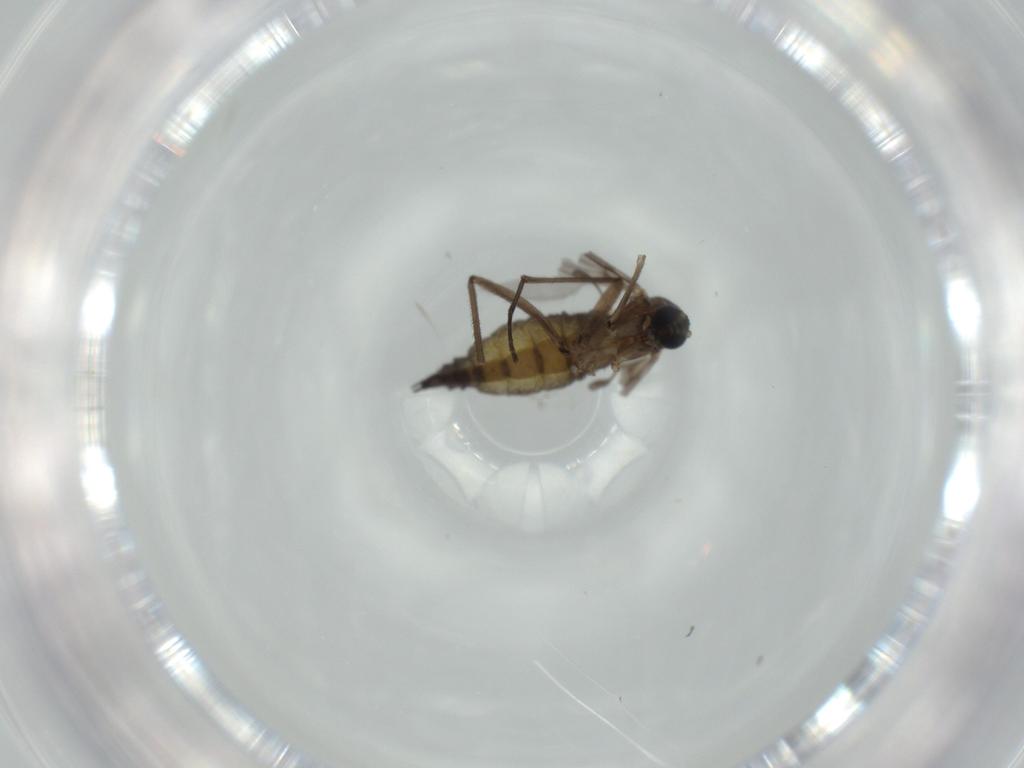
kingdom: Animalia
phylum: Arthropoda
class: Insecta
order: Diptera
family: Sciaridae
